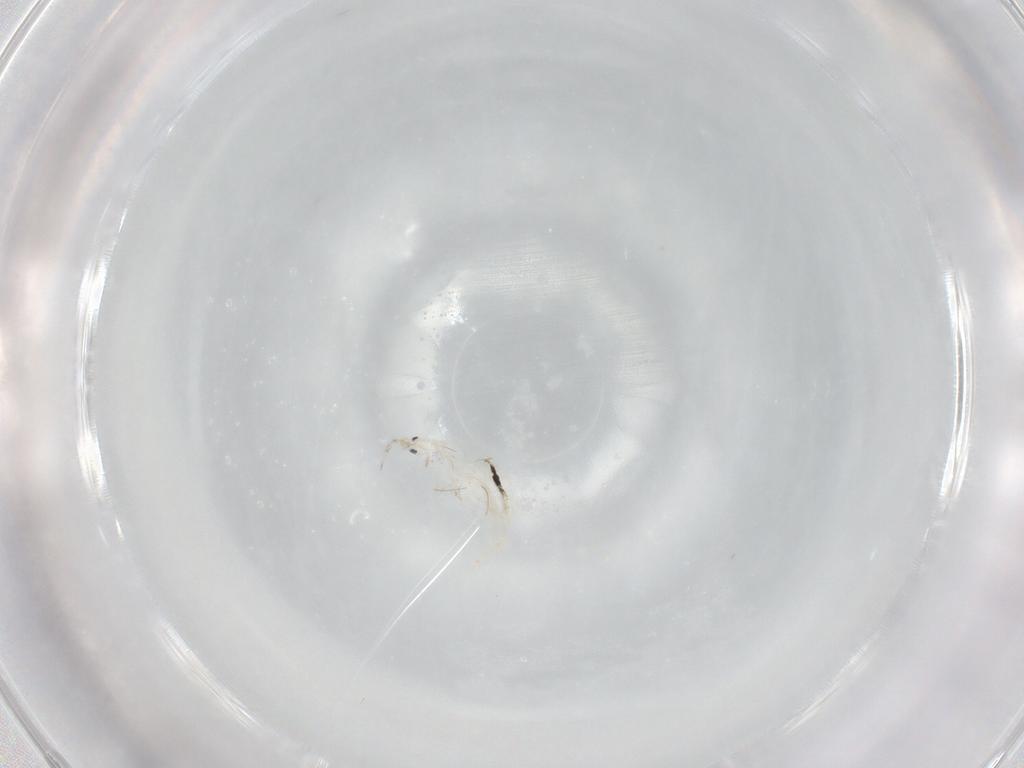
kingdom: Animalia
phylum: Arthropoda
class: Collembola
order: Entomobryomorpha
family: Entomobryidae
